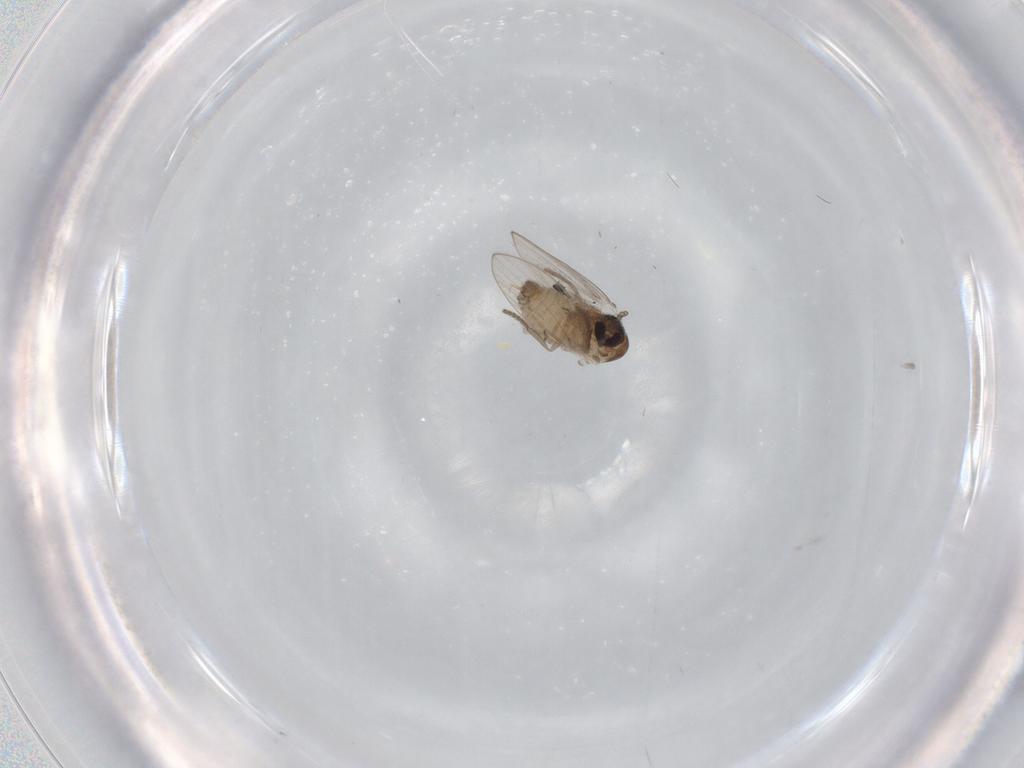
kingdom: Animalia
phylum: Arthropoda
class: Insecta
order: Diptera
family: Psychodidae
